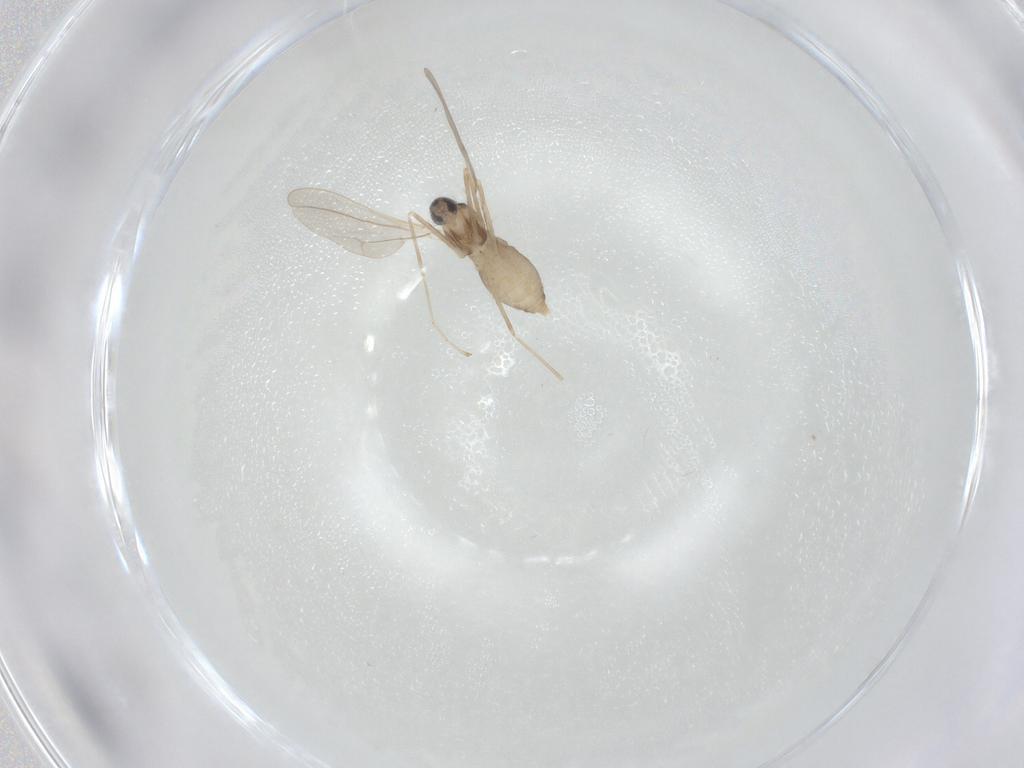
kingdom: Animalia
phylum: Arthropoda
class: Insecta
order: Diptera
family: Cecidomyiidae
